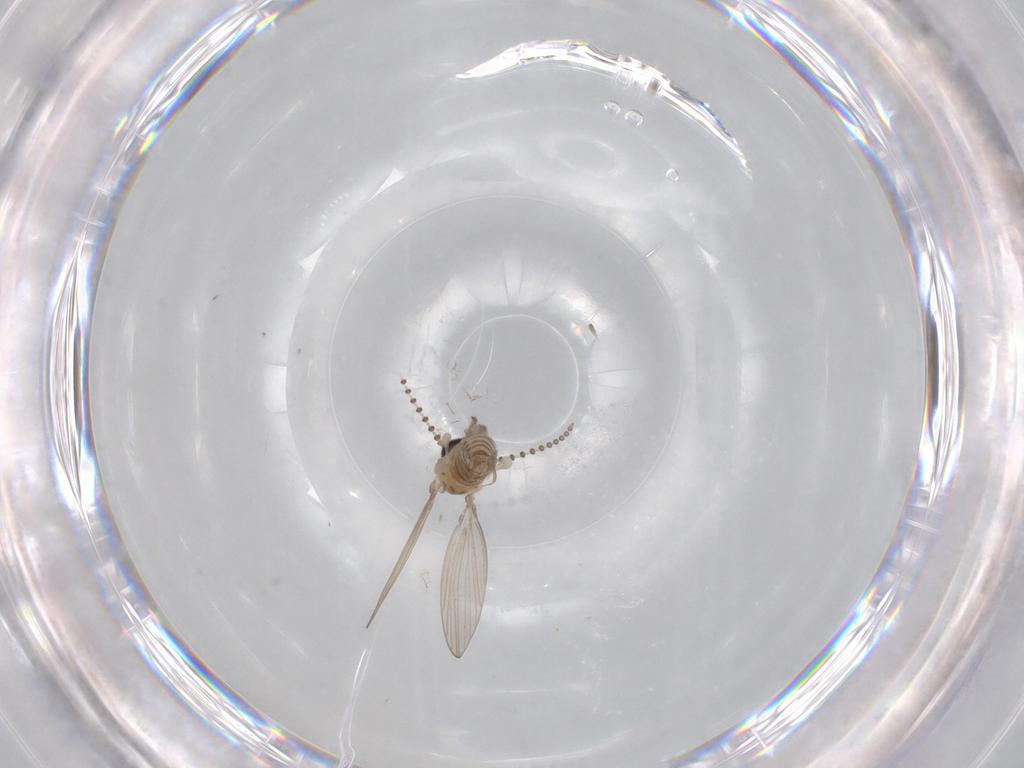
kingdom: Animalia
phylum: Arthropoda
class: Insecta
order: Diptera
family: Psychodidae
